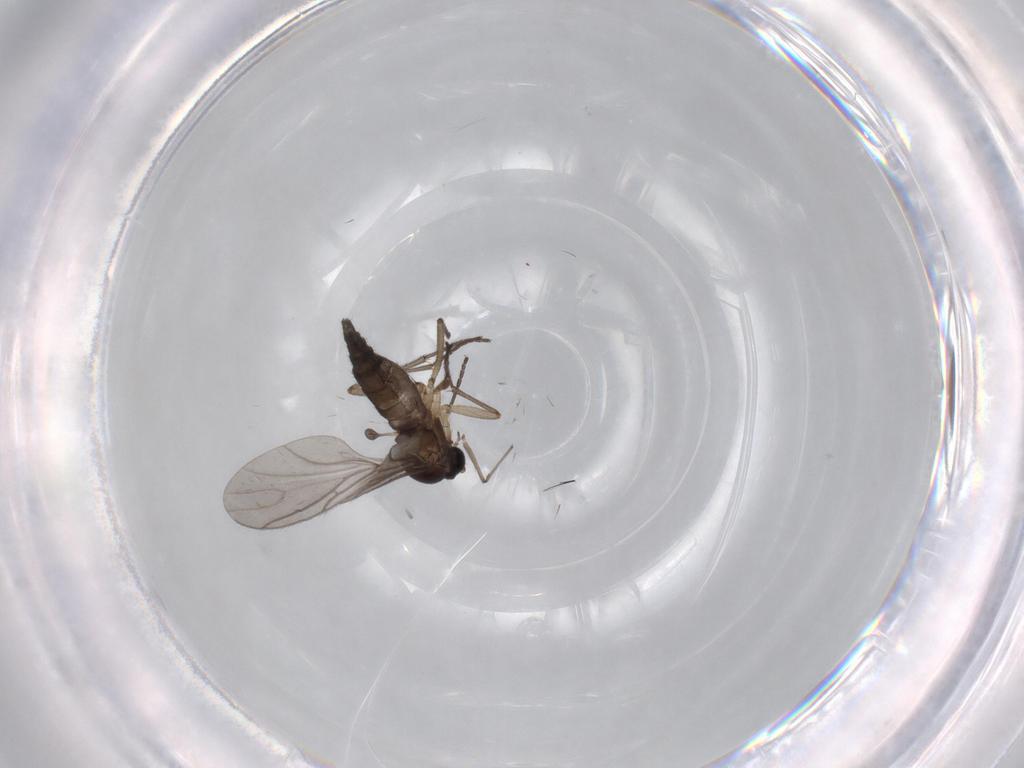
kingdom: Animalia
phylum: Arthropoda
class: Insecta
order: Diptera
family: Sciaridae
